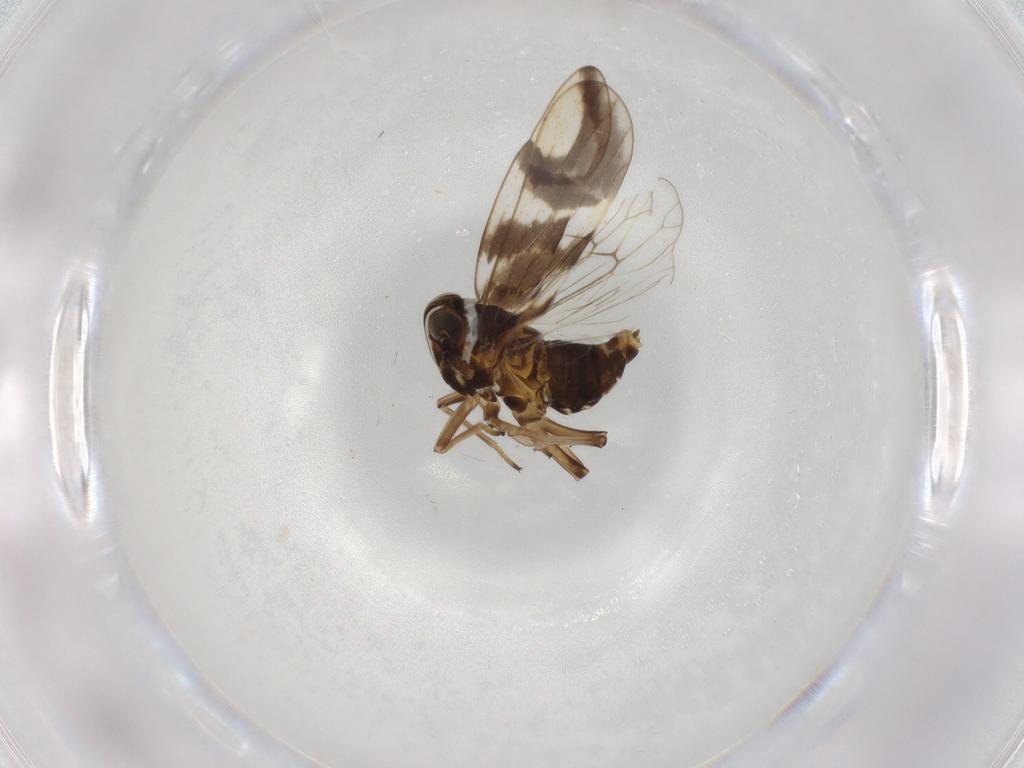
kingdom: Animalia
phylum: Arthropoda
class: Insecta
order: Hemiptera
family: Delphacidae
